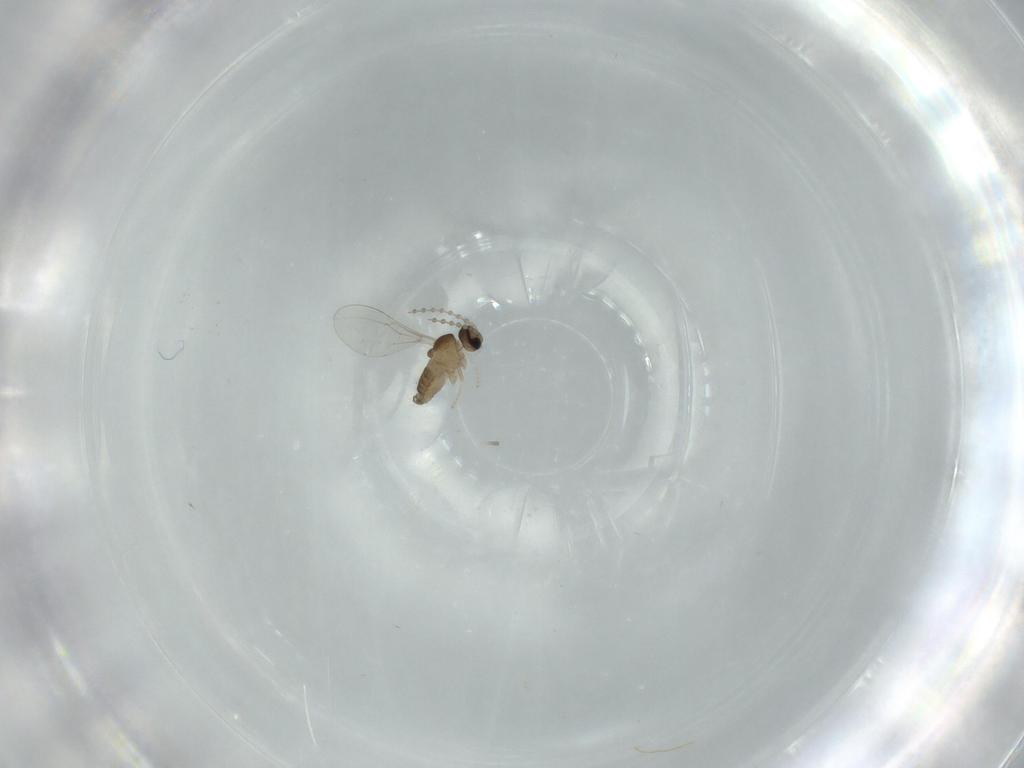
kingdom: Animalia
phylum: Arthropoda
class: Insecta
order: Diptera
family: Cecidomyiidae
